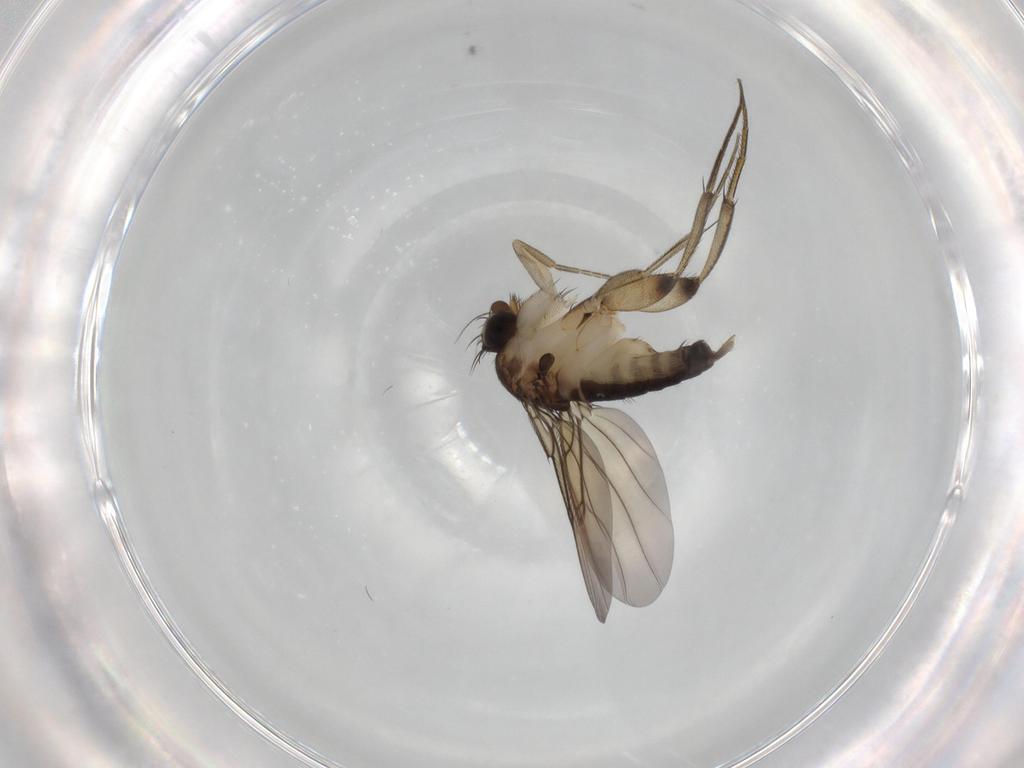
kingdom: Animalia
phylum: Arthropoda
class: Insecta
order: Diptera
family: Phoridae
